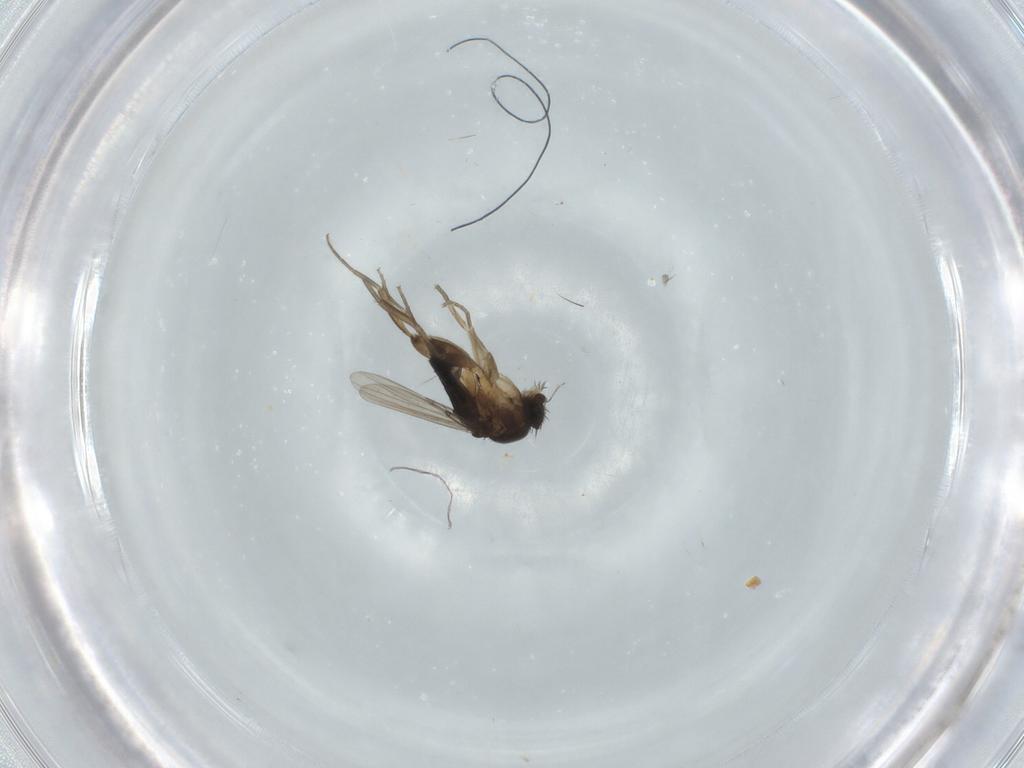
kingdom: Animalia
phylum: Arthropoda
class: Insecta
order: Diptera
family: Phoridae
